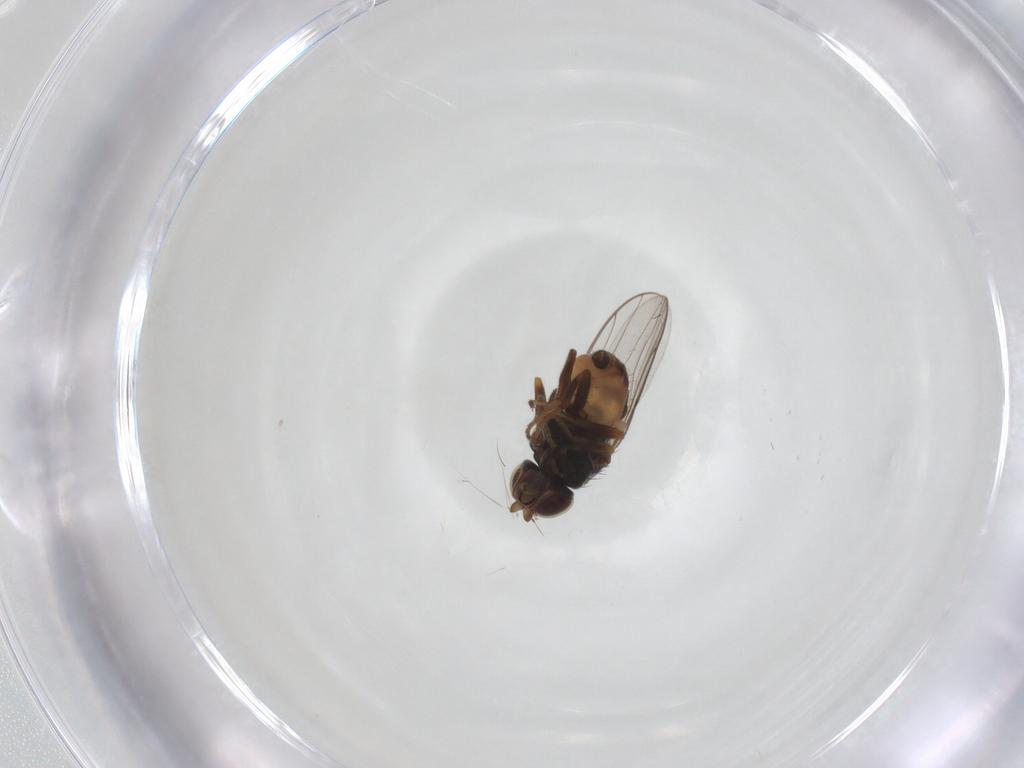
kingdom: Animalia
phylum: Arthropoda
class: Insecta
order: Diptera
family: Chloropidae
